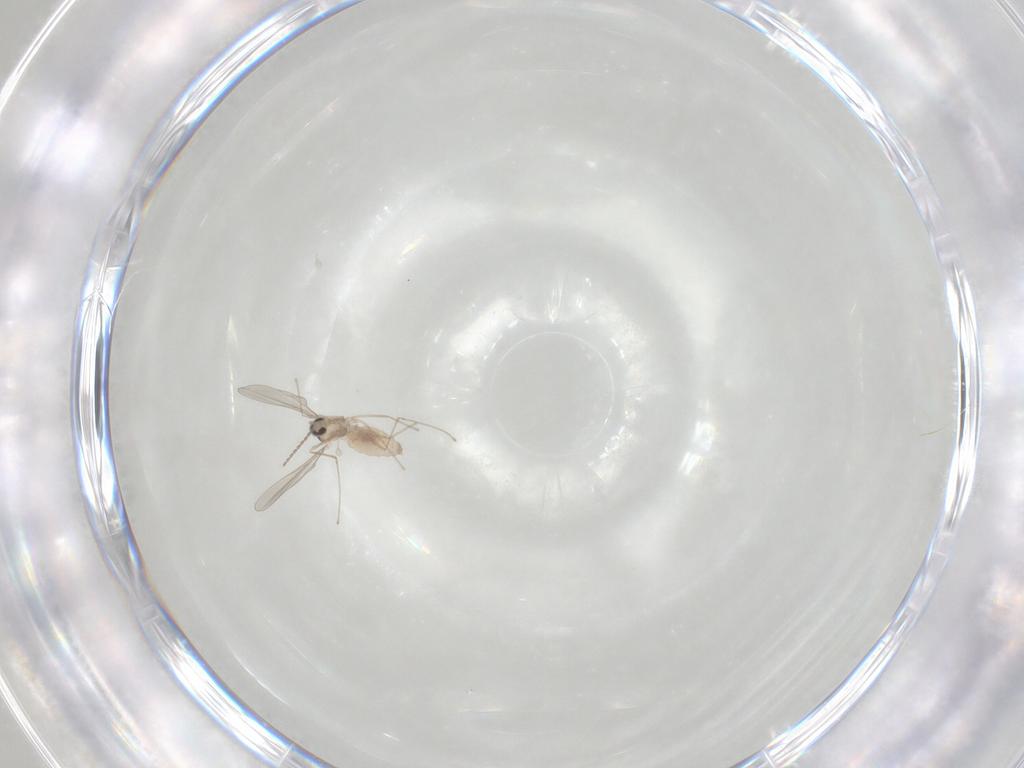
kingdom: Animalia
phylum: Arthropoda
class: Insecta
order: Diptera
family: Cecidomyiidae
